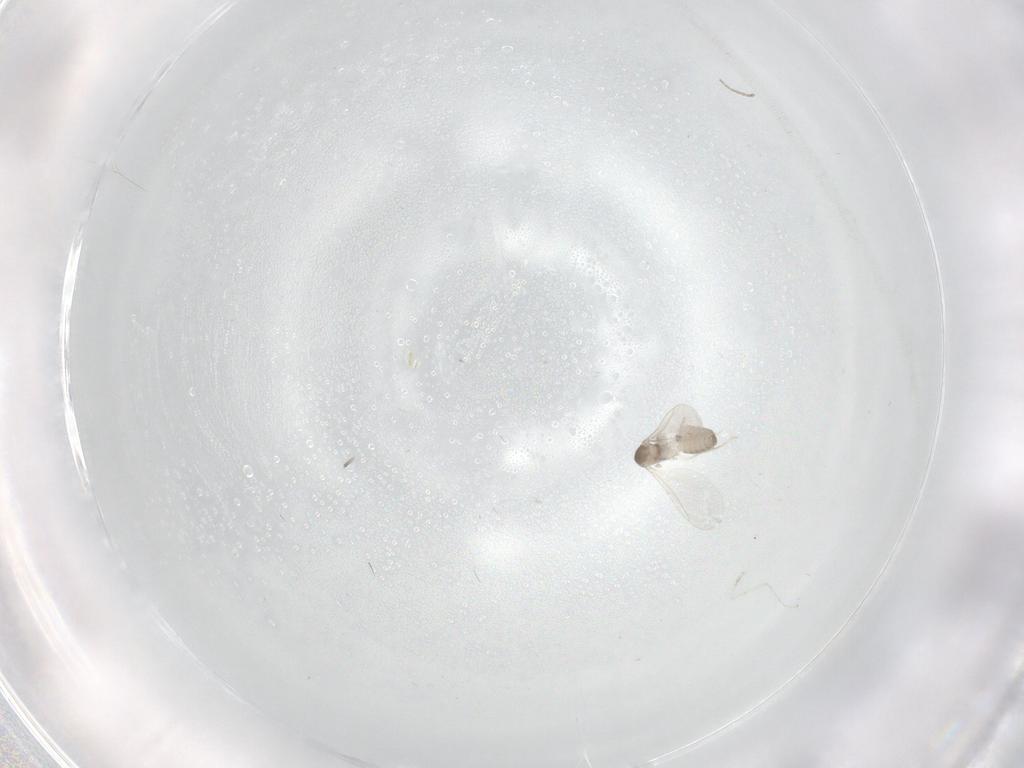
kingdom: Animalia
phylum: Arthropoda
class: Insecta
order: Diptera
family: Cecidomyiidae
